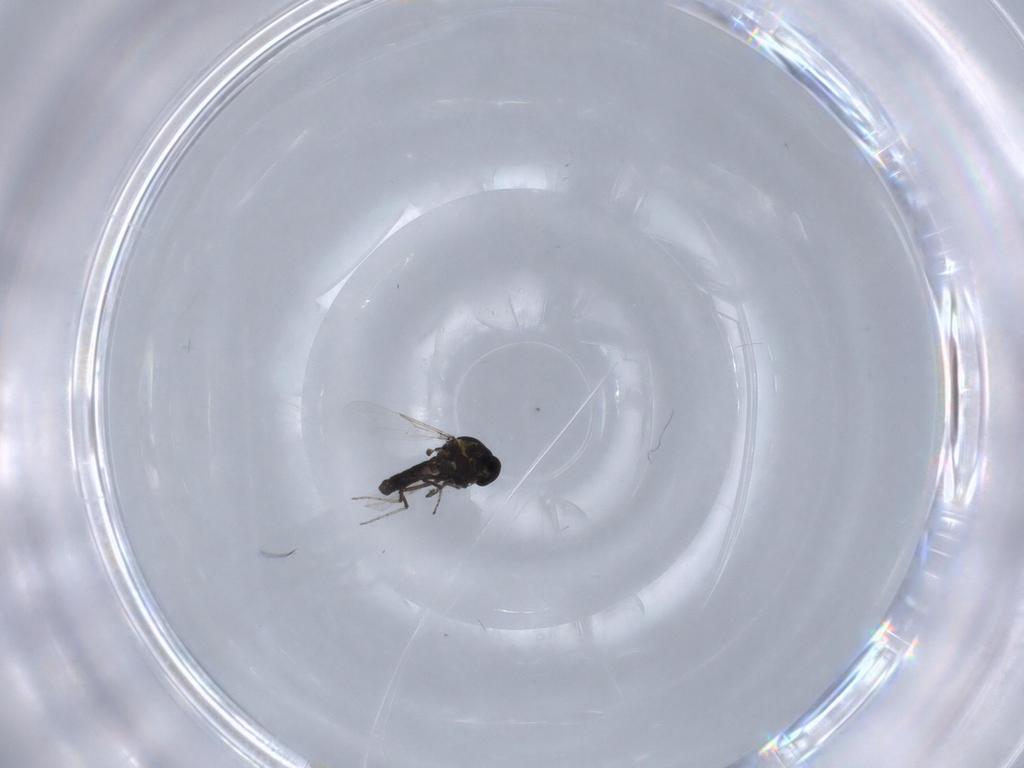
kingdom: Animalia
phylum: Arthropoda
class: Insecta
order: Diptera
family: Ceratopogonidae
